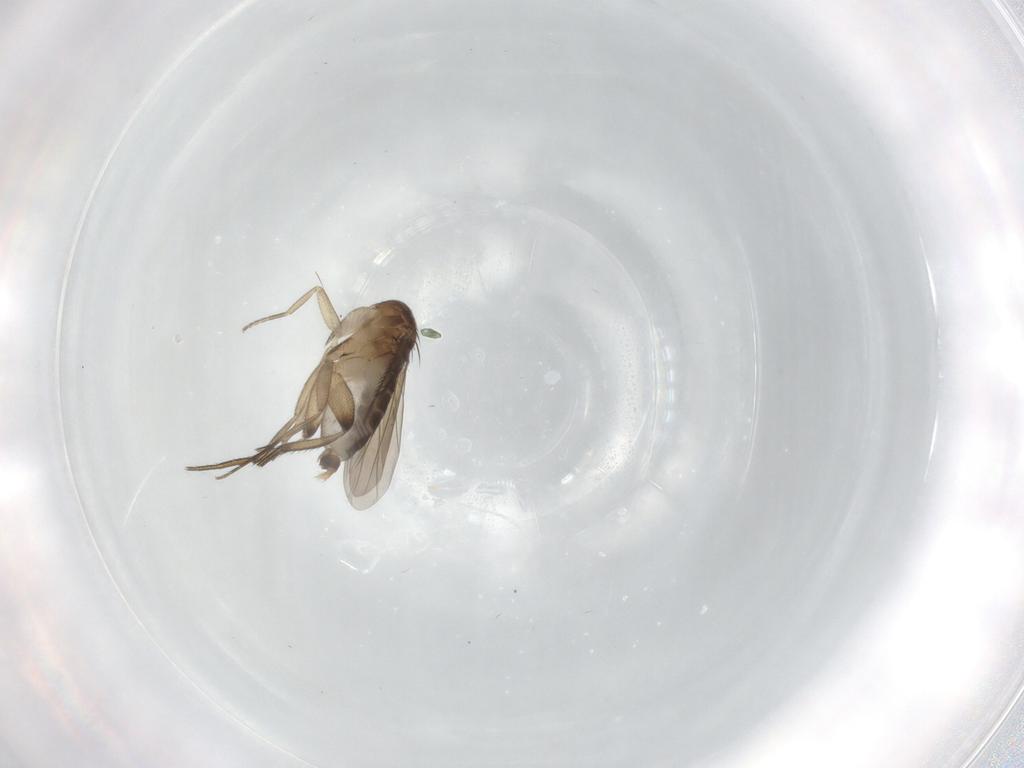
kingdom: Animalia
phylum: Arthropoda
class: Insecta
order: Diptera
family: Phoridae
